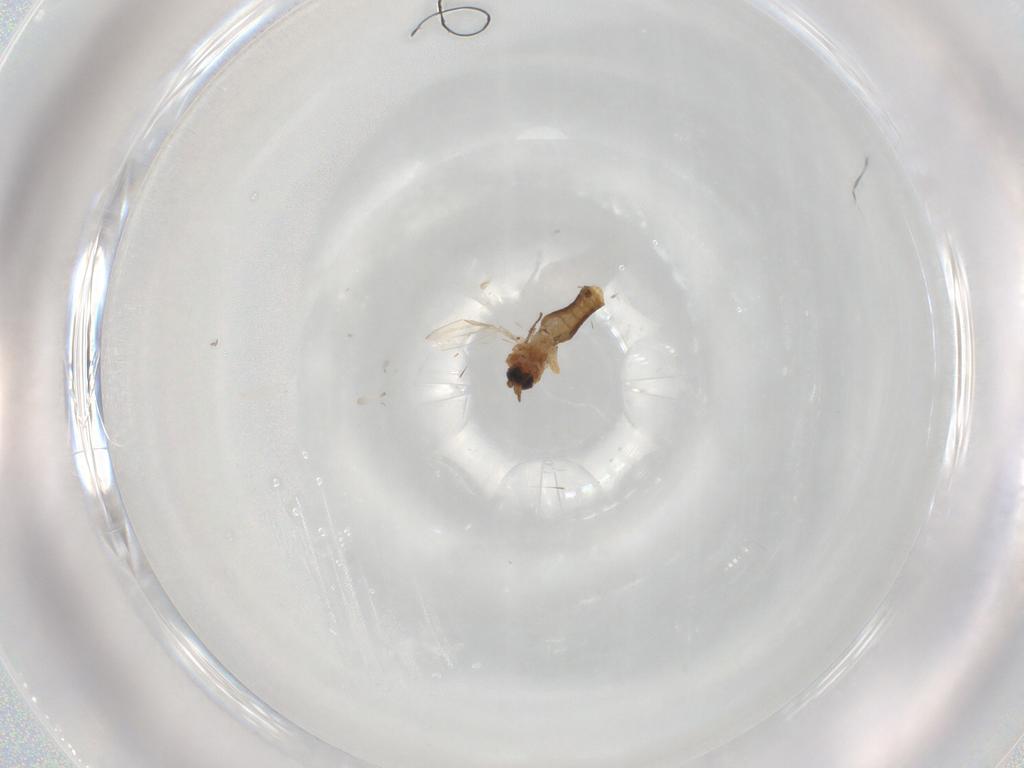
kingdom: Animalia
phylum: Arthropoda
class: Insecta
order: Diptera
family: Ceratopogonidae
